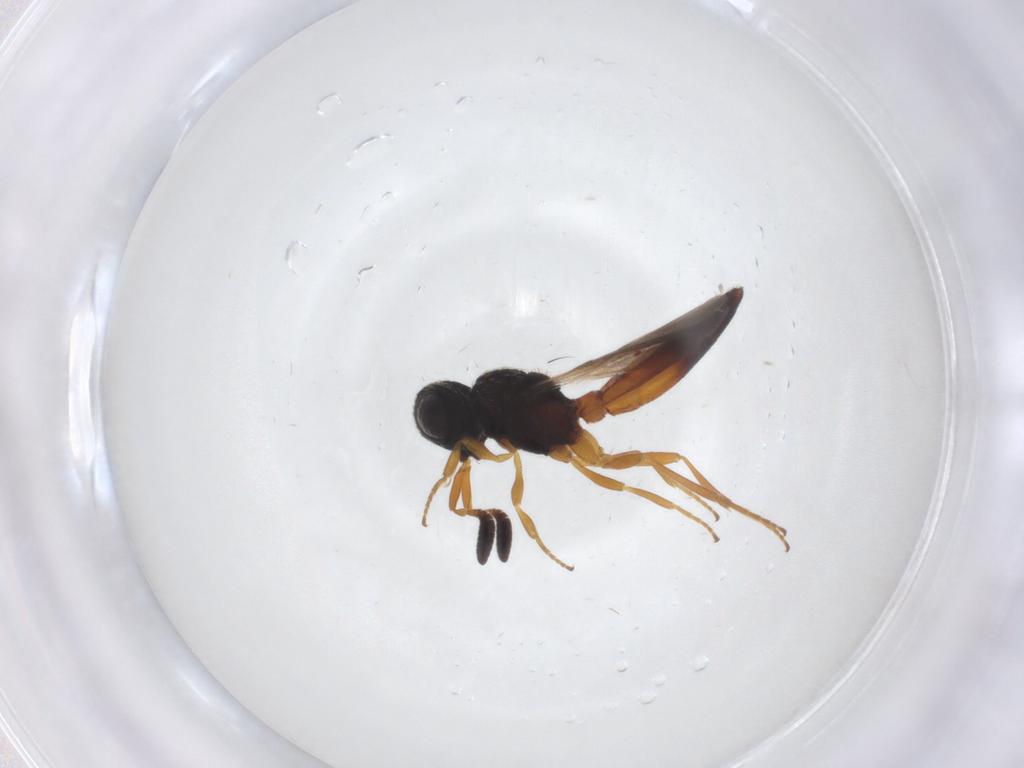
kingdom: Animalia
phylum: Arthropoda
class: Insecta
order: Hymenoptera
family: Scelionidae
